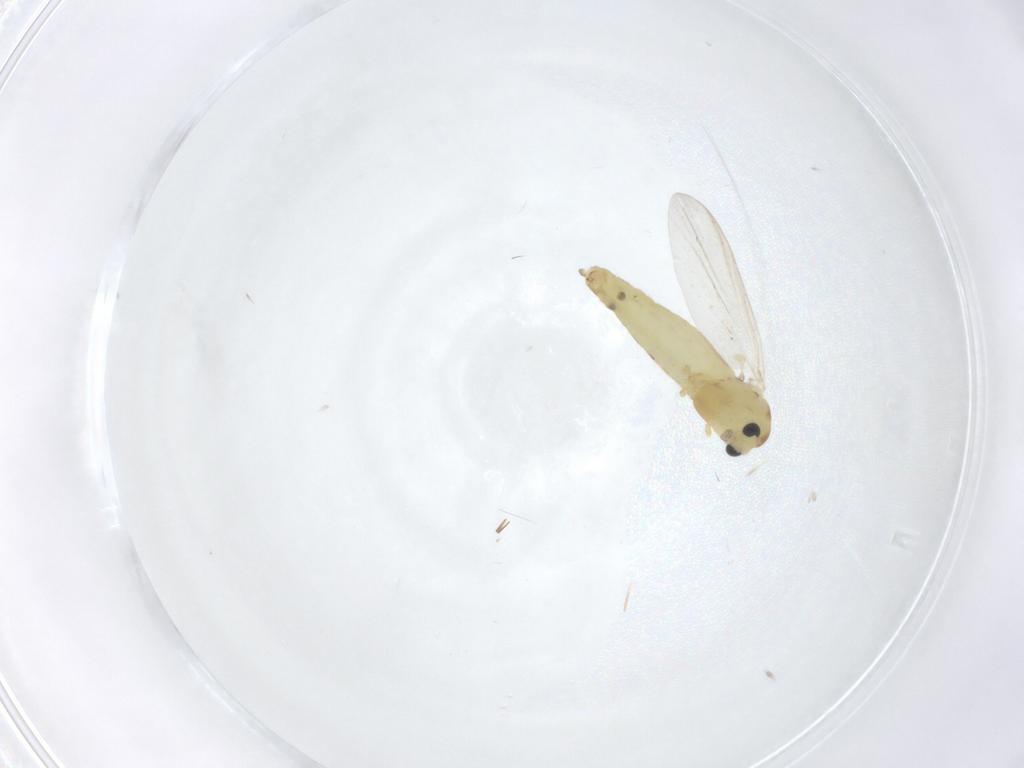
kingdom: Animalia
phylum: Arthropoda
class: Insecta
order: Diptera
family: Chironomidae
